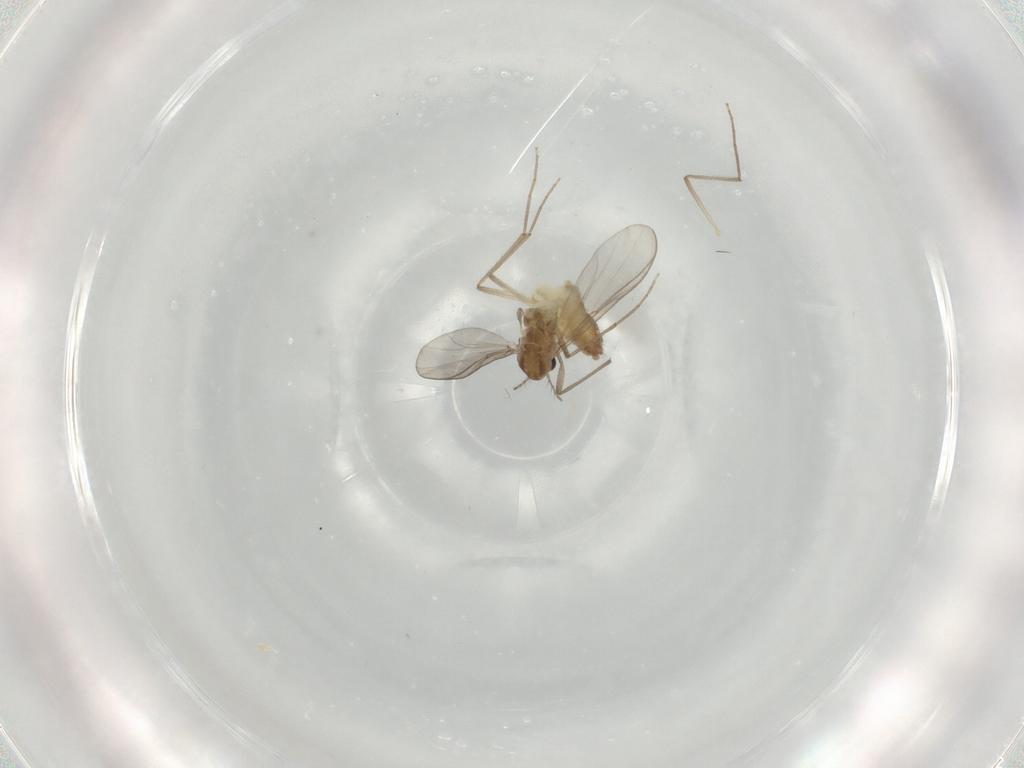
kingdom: Animalia
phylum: Arthropoda
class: Insecta
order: Diptera
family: Chironomidae
